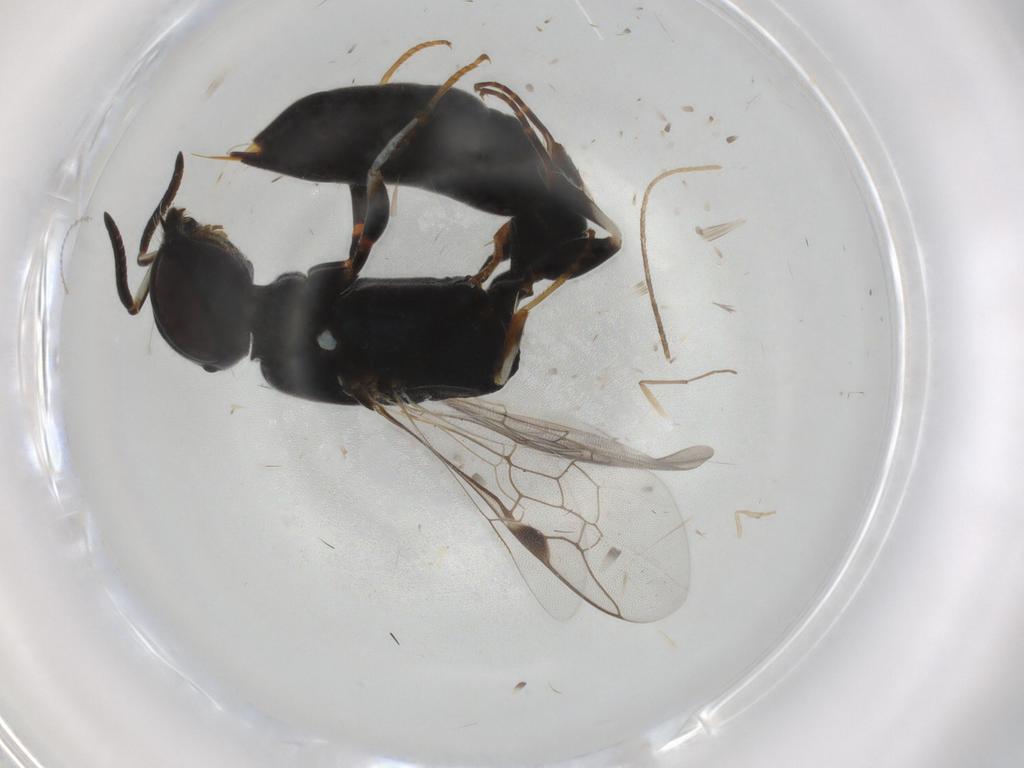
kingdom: Animalia
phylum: Arthropoda
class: Insecta
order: Hymenoptera
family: Pemphredonidae
